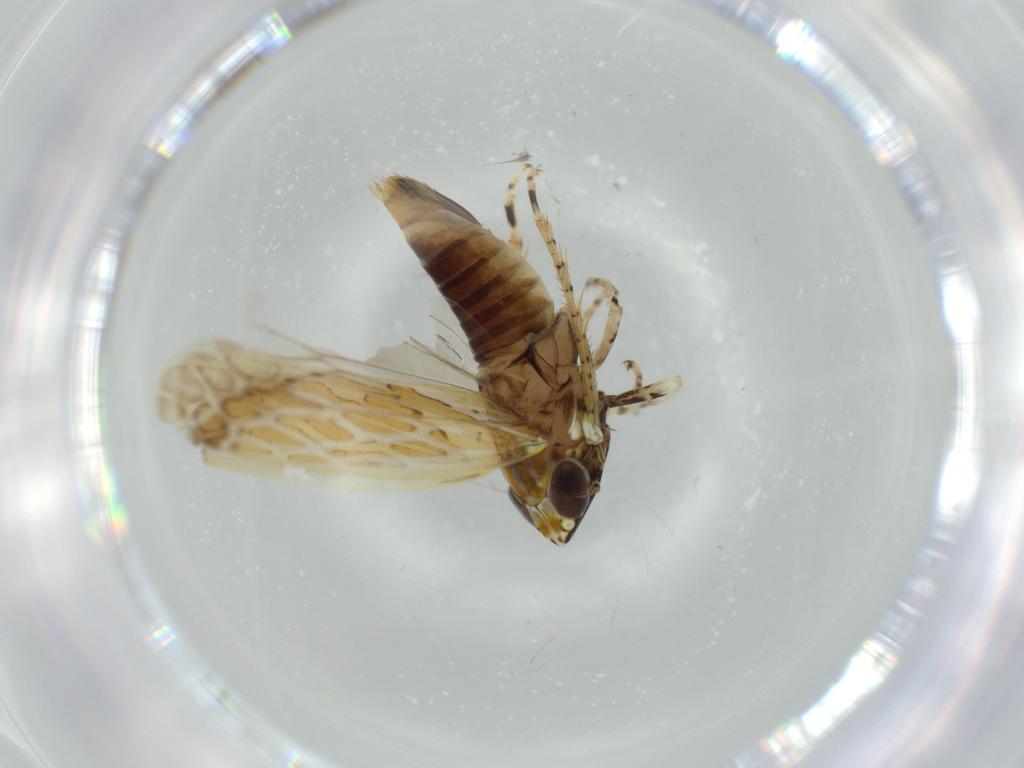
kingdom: Animalia
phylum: Arthropoda
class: Insecta
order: Hemiptera
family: Cicadellidae
